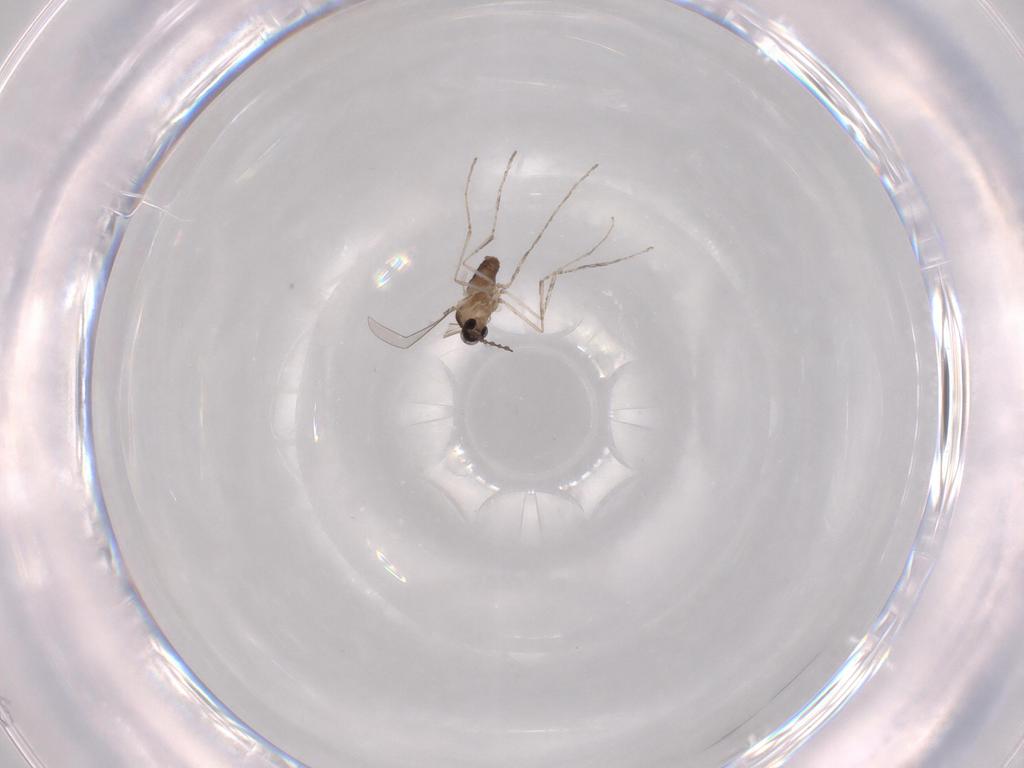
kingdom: Animalia
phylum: Arthropoda
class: Insecta
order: Diptera
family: Cecidomyiidae
